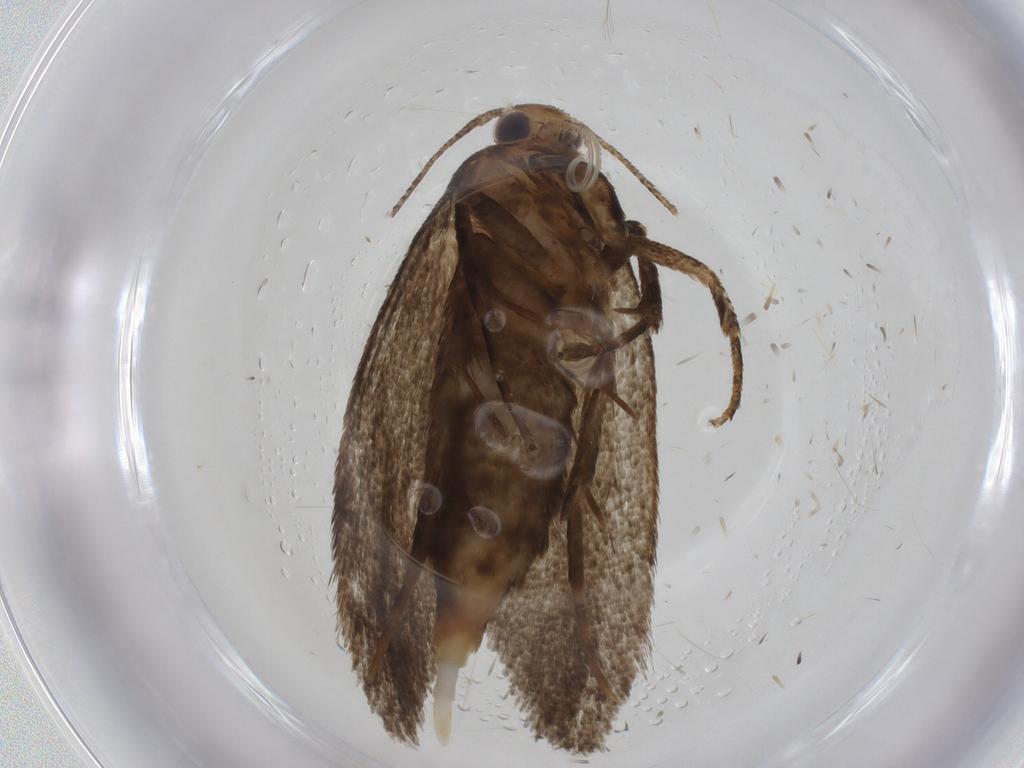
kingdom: Animalia
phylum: Arthropoda
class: Insecta
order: Lepidoptera
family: Oecophoridae
